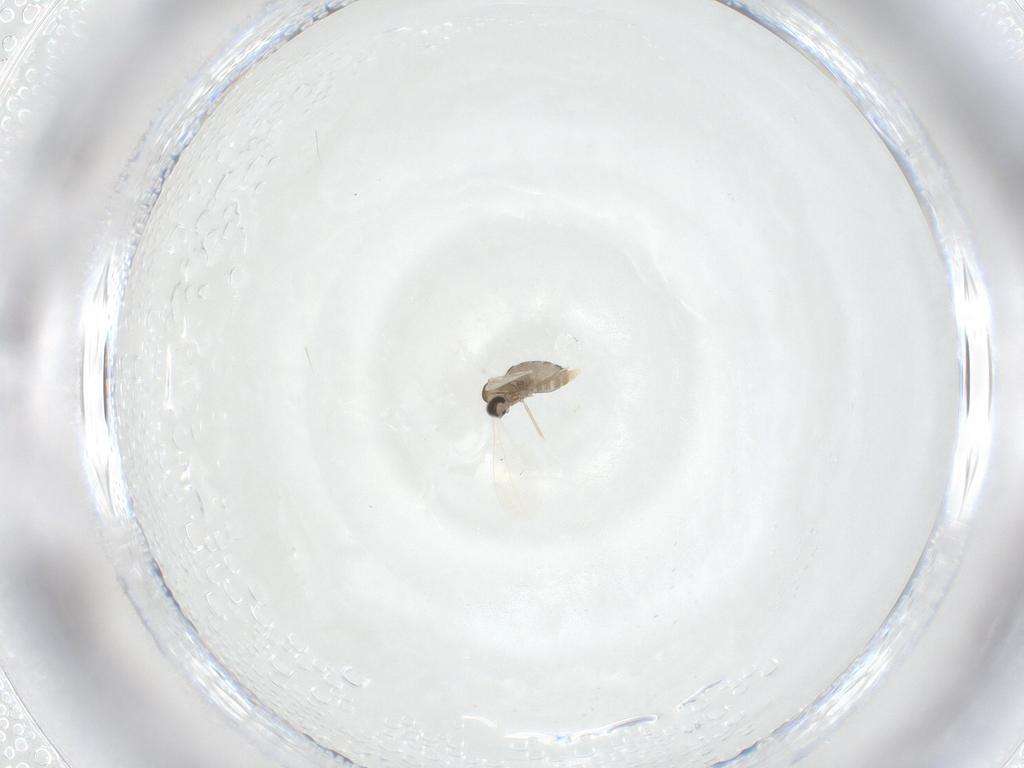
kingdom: Animalia
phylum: Arthropoda
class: Insecta
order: Diptera
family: Cecidomyiidae
